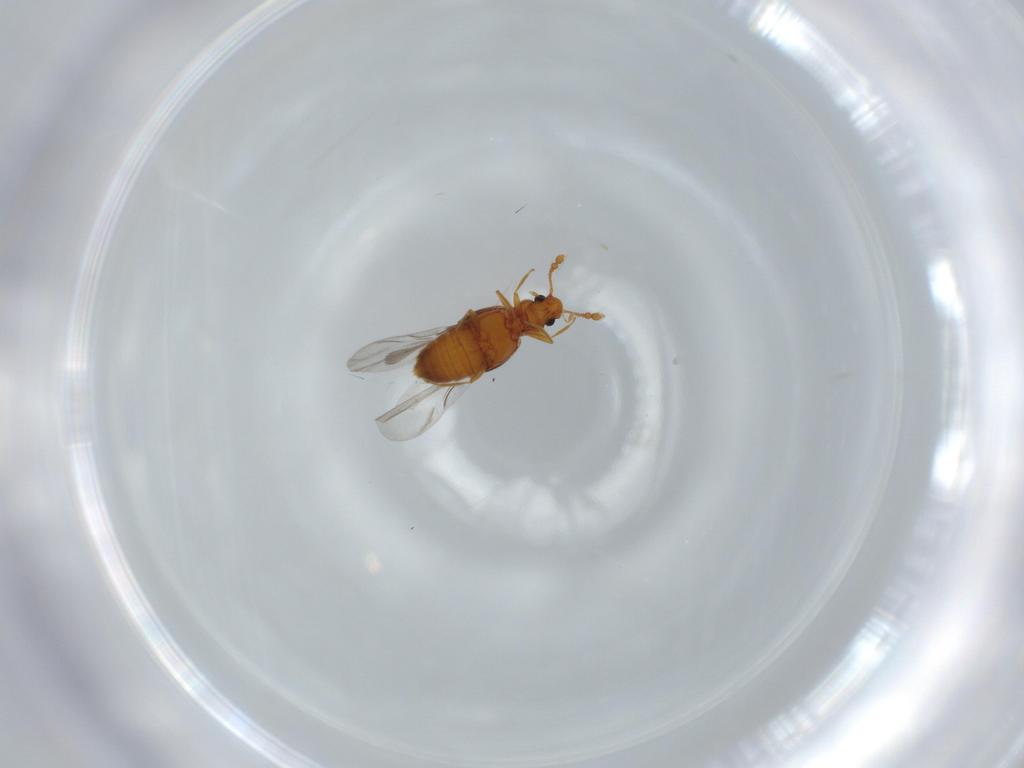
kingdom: Animalia
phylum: Arthropoda
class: Insecta
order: Coleoptera
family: Staphylinidae
